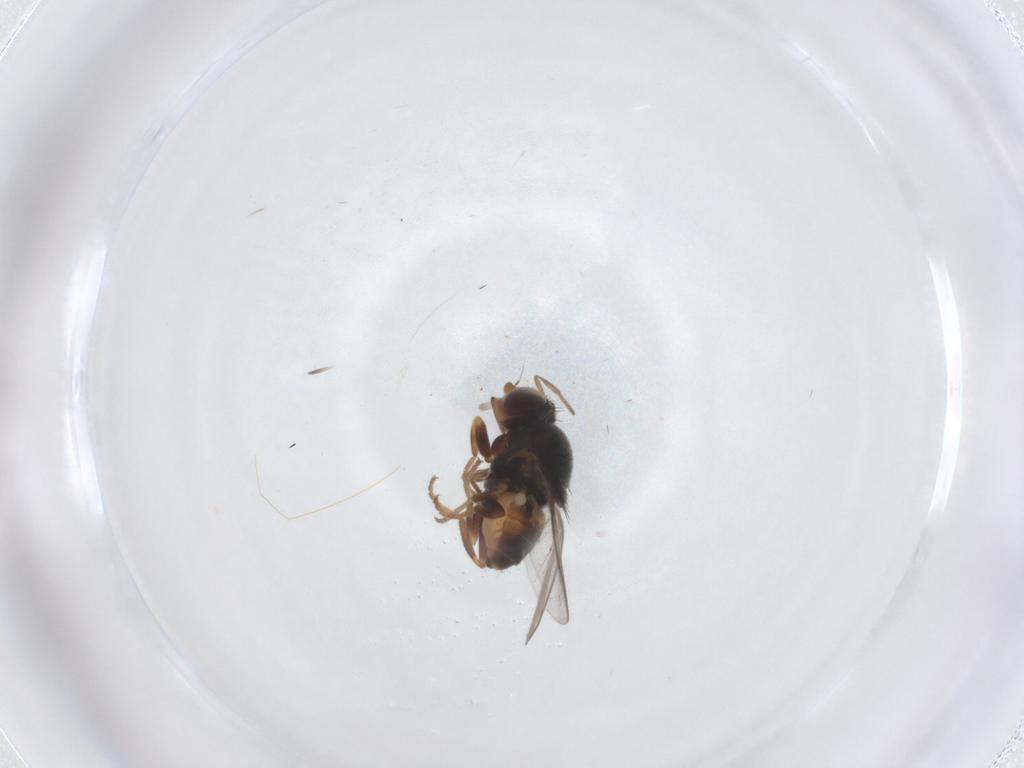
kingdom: Animalia
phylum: Arthropoda
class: Insecta
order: Diptera
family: Chloropidae
